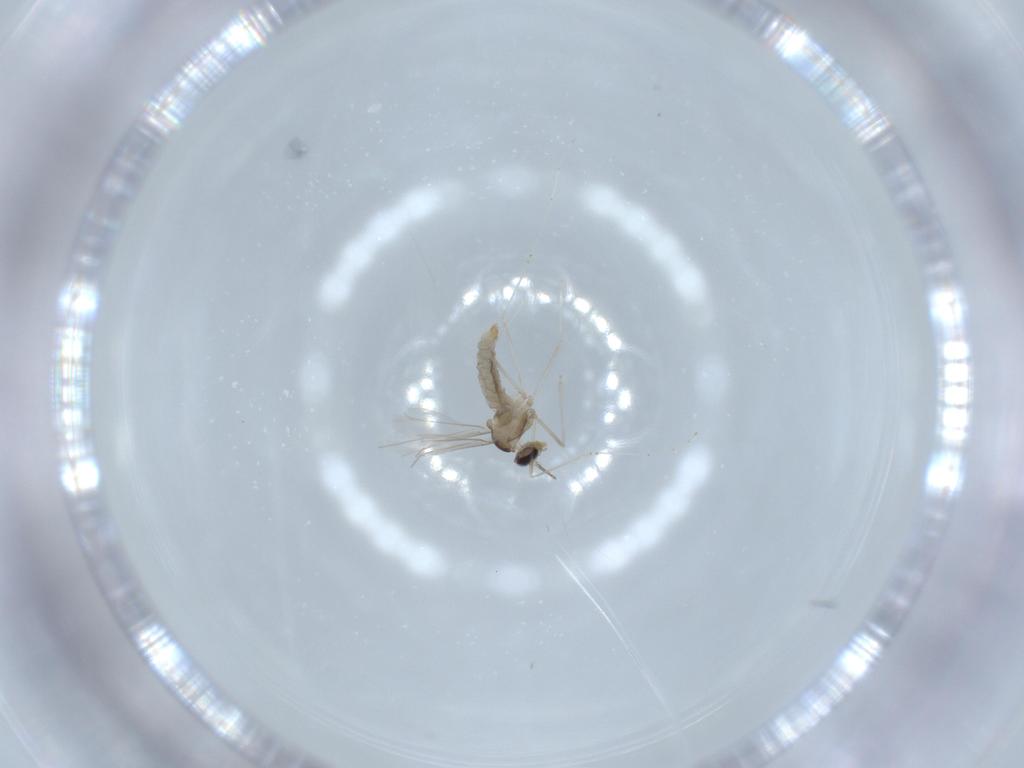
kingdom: Animalia
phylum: Arthropoda
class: Insecta
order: Diptera
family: Cecidomyiidae
